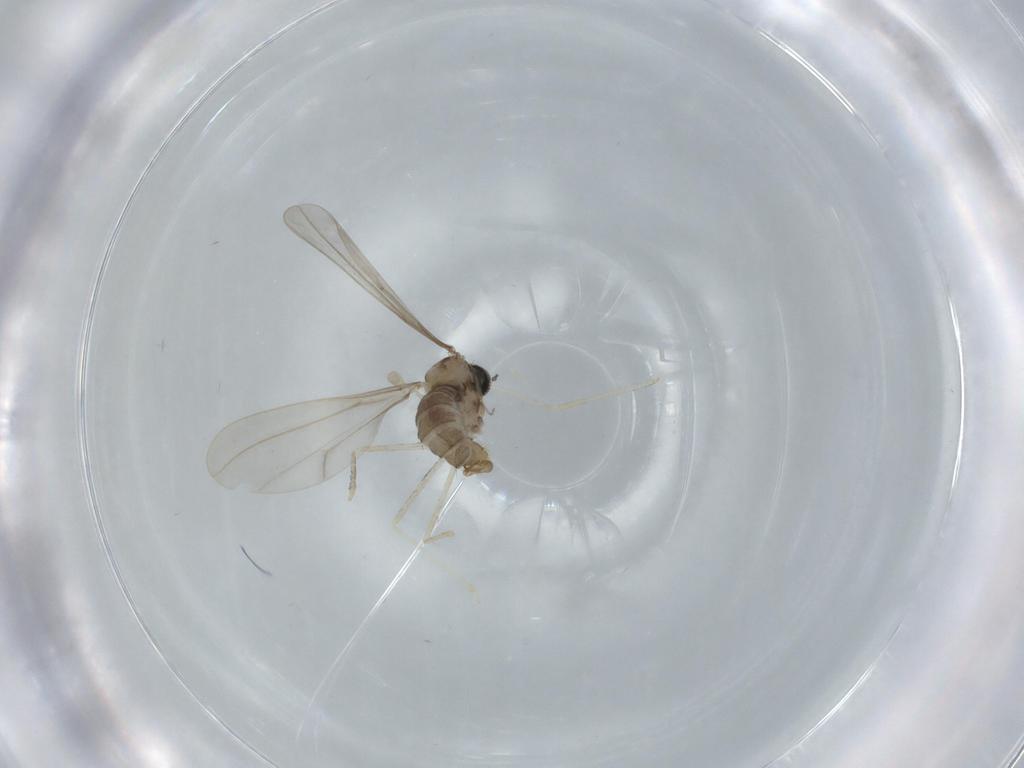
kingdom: Animalia
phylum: Arthropoda
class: Insecta
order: Diptera
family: Cecidomyiidae
